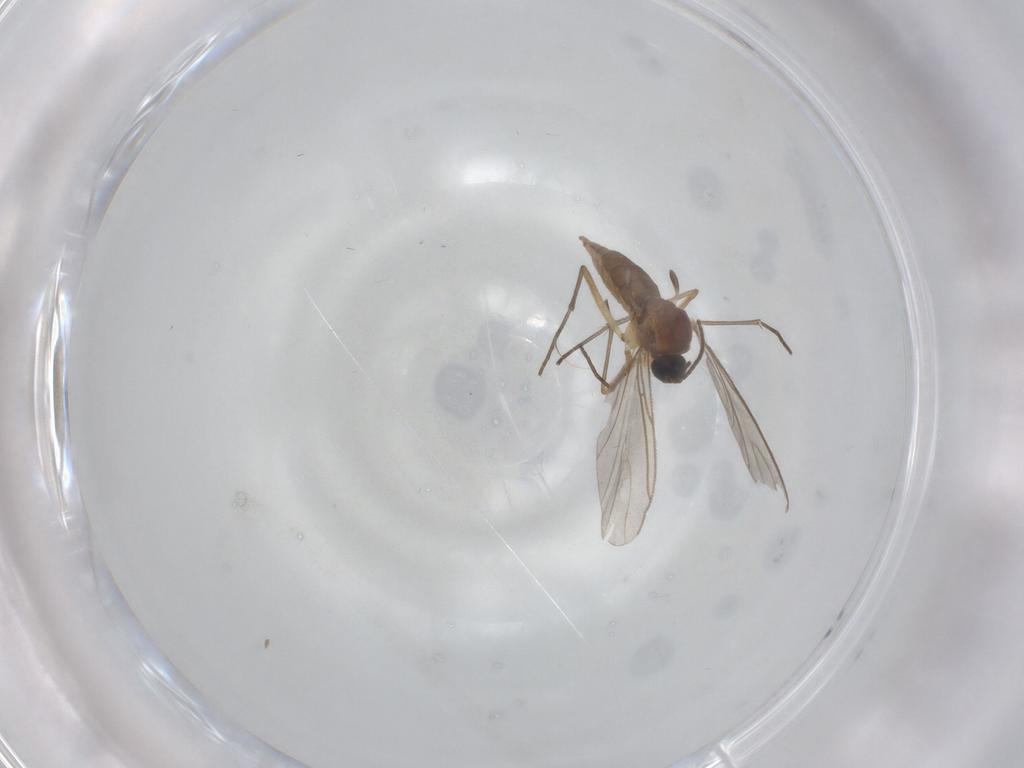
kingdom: Animalia
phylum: Arthropoda
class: Insecta
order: Diptera
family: Sciaridae
